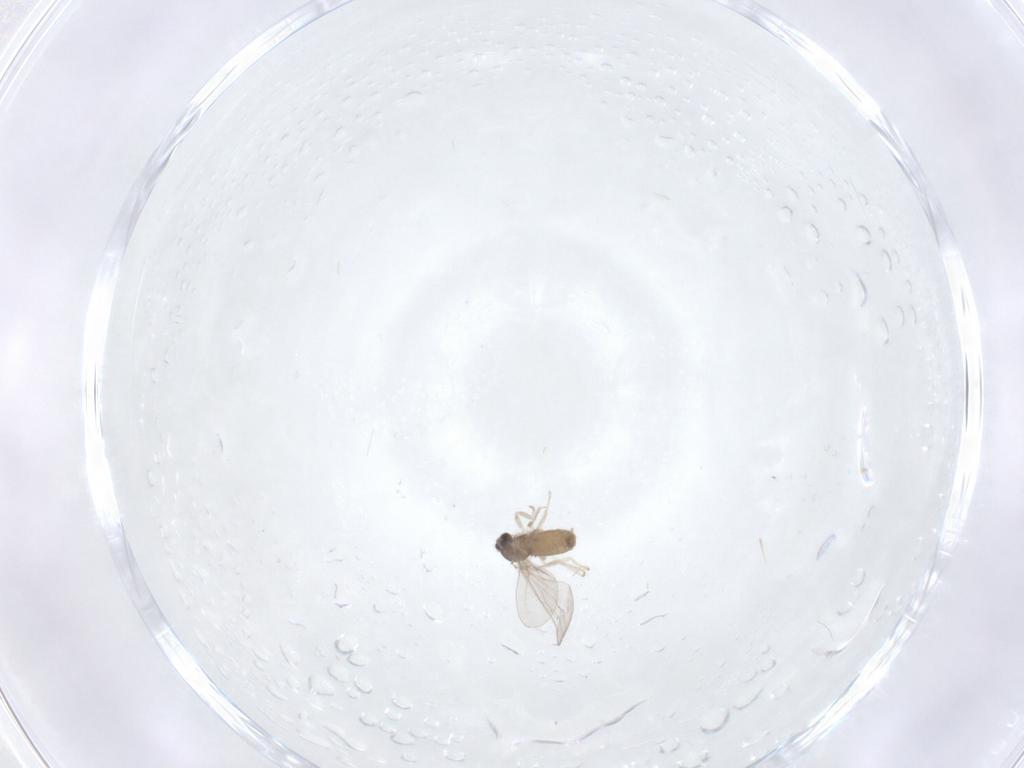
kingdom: Animalia
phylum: Arthropoda
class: Insecta
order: Diptera
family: Cecidomyiidae
